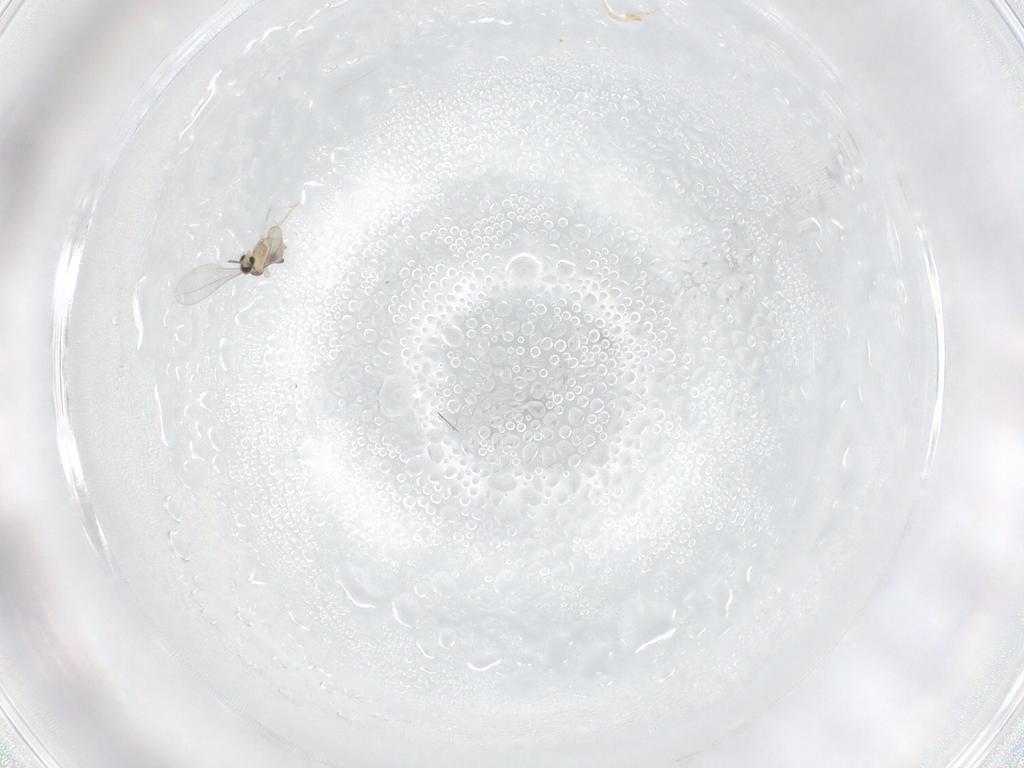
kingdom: Animalia
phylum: Arthropoda
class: Insecta
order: Diptera
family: Cecidomyiidae
